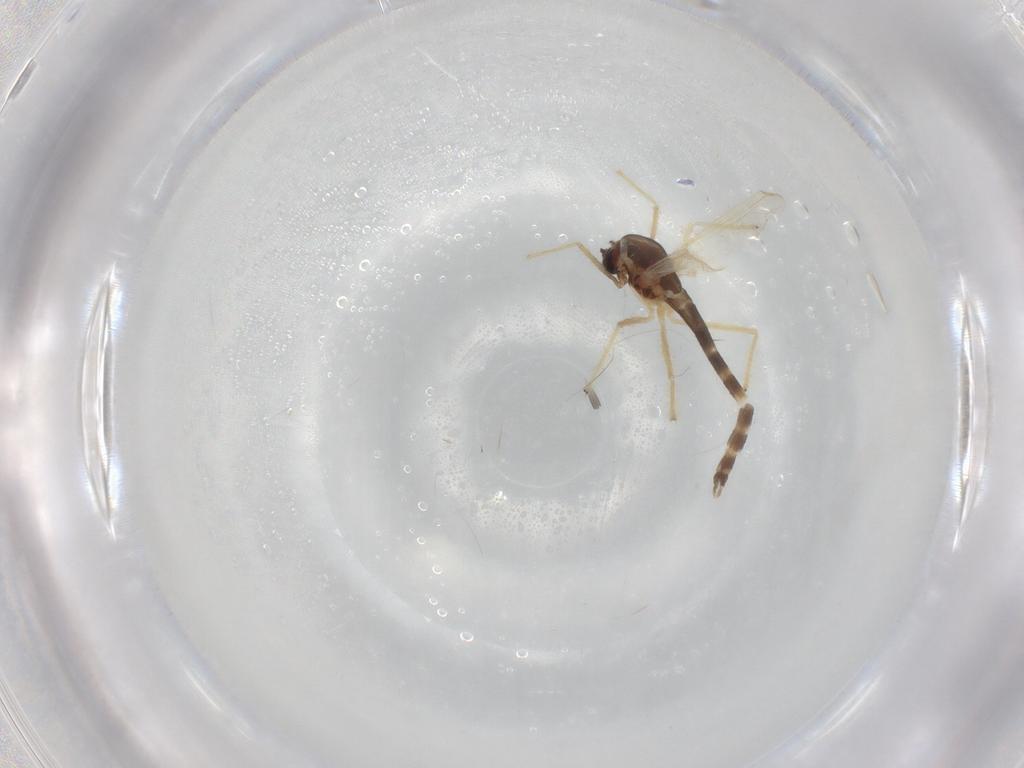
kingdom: Animalia
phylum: Arthropoda
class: Insecta
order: Diptera
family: Chironomidae
